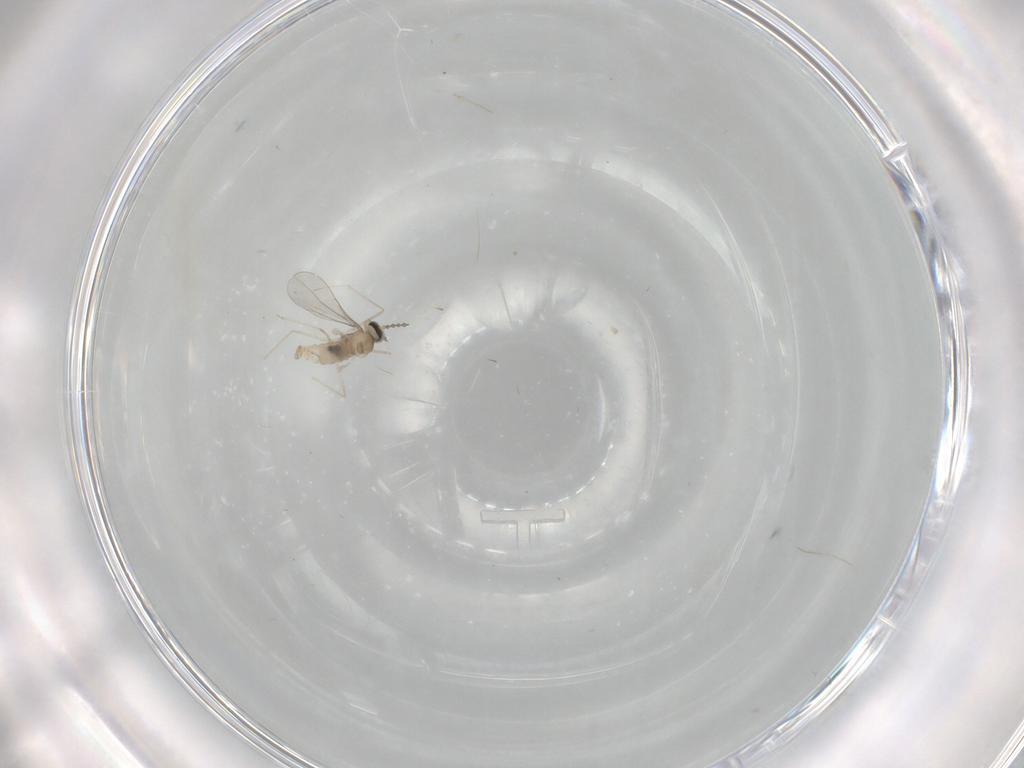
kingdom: Animalia
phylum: Arthropoda
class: Insecta
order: Diptera
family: Cecidomyiidae
